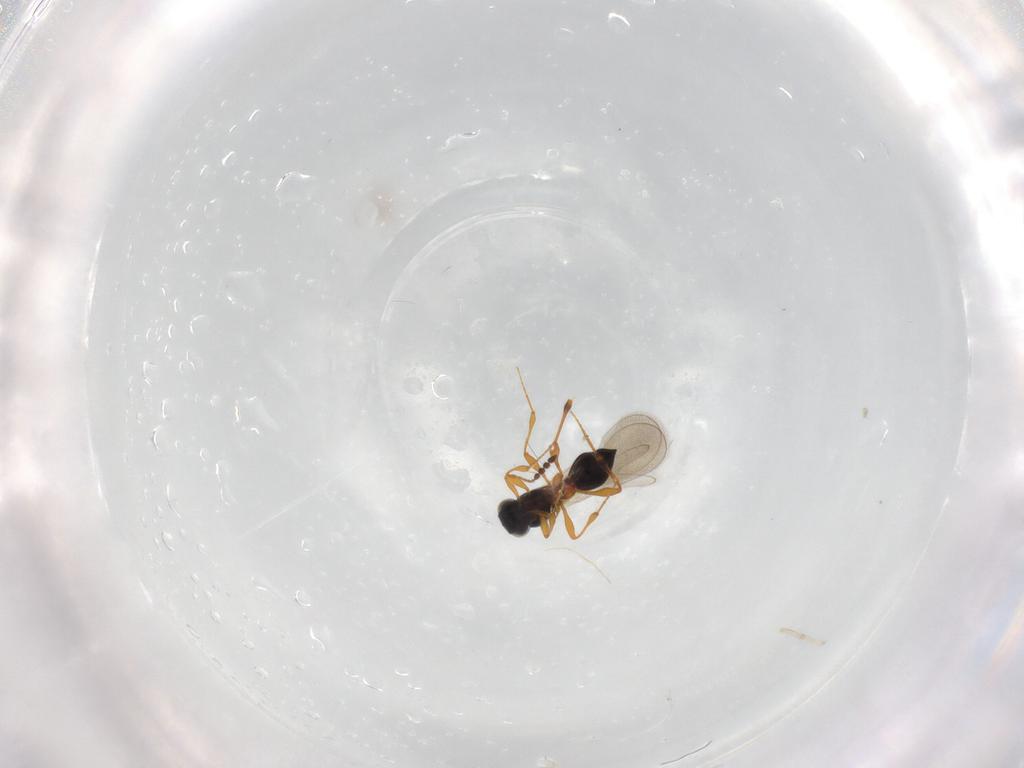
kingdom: Animalia
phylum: Arthropoda
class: Insecta
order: Hymenoptera
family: Platygastridae
